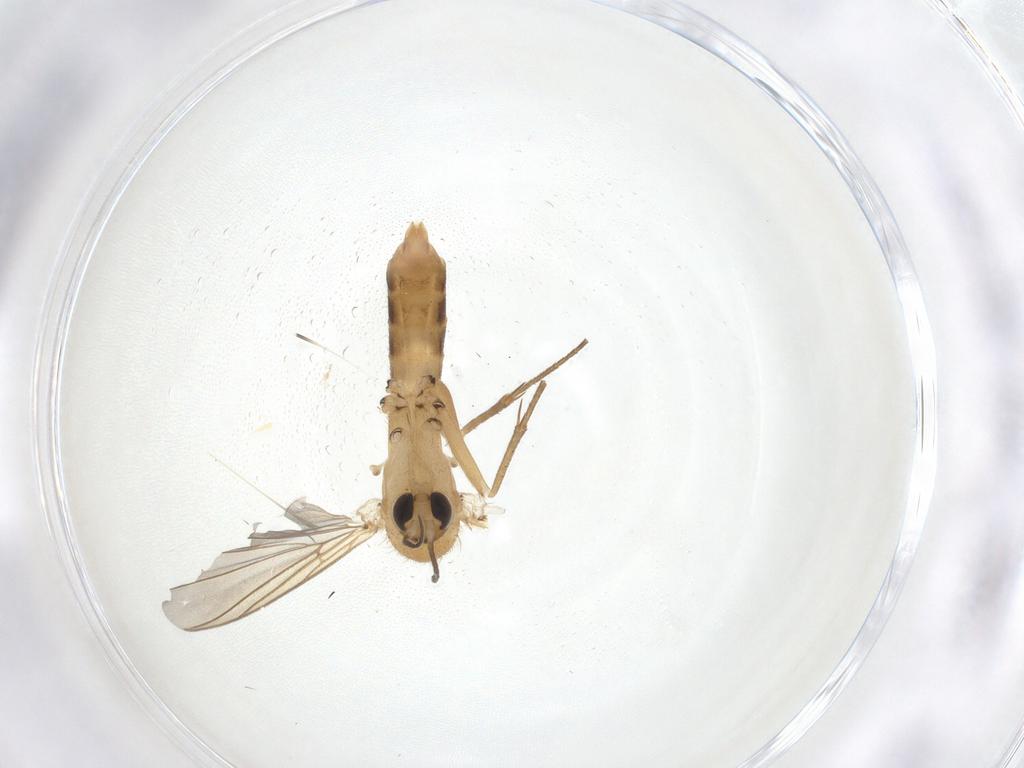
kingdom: Animalia
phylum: Arthropoda
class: Insecta
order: Diptera
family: Mycetophilidae
